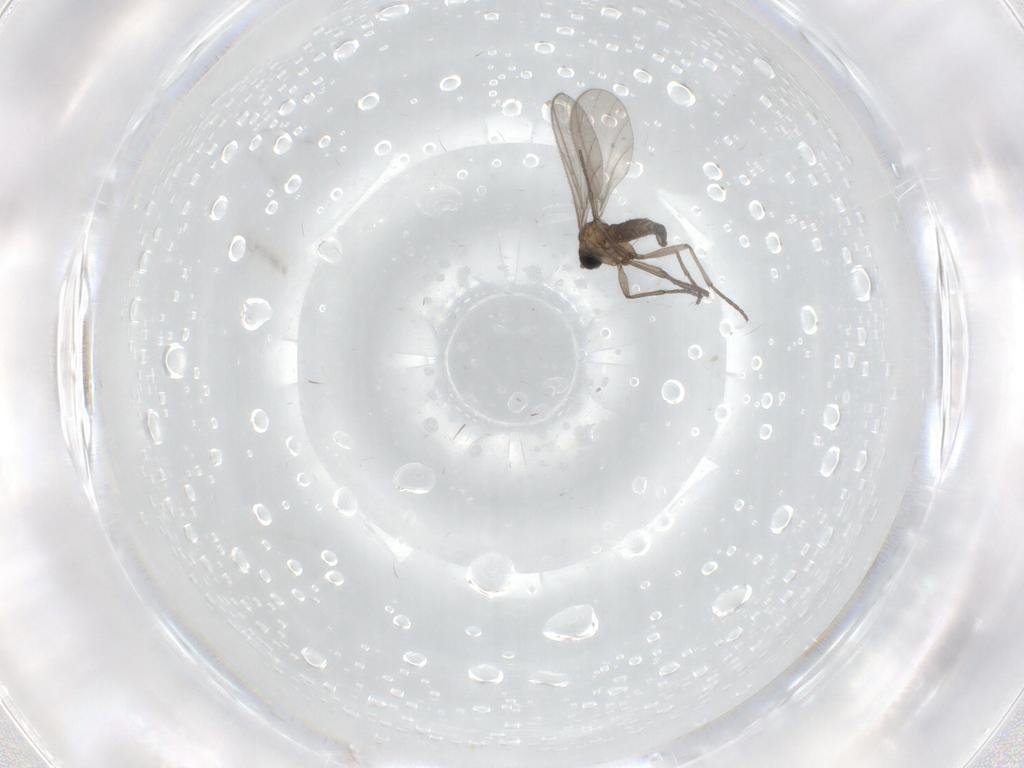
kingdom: Animalia
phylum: Arthropoda
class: Insecta
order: Diptera
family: Sciaridae
